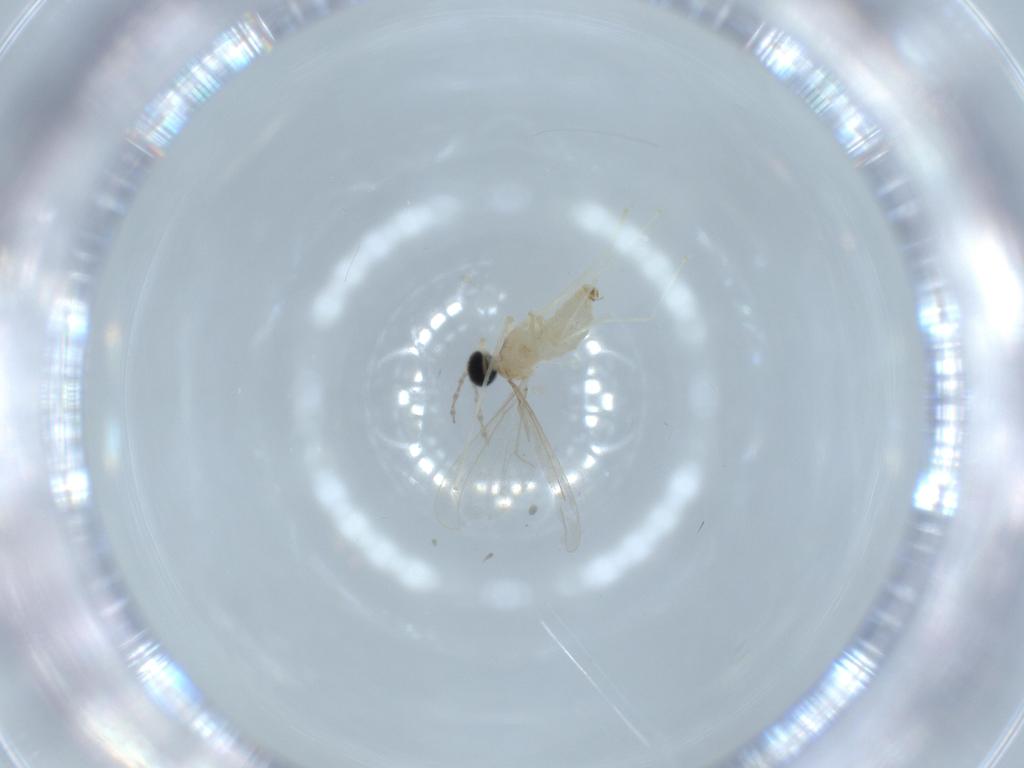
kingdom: Animalia
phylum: Arthropoda
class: Insecta
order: Diptera
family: Cecidomyiidae
